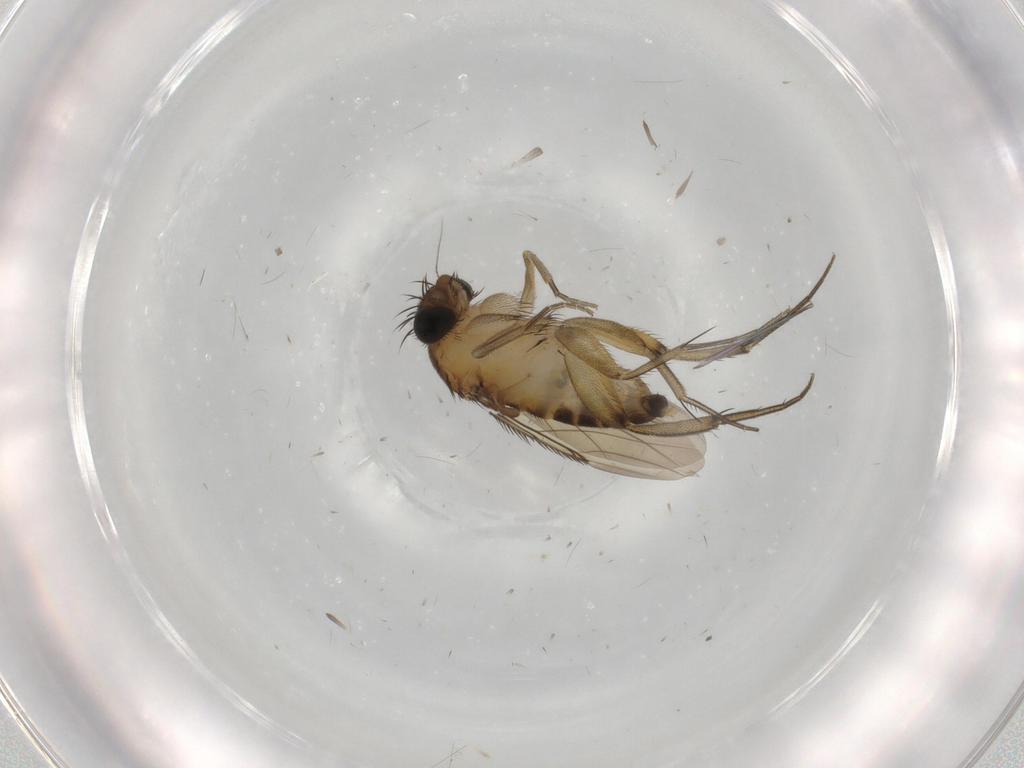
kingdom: Animalia
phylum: Arthropoda
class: Insecta
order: Diptera
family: Phoridae
